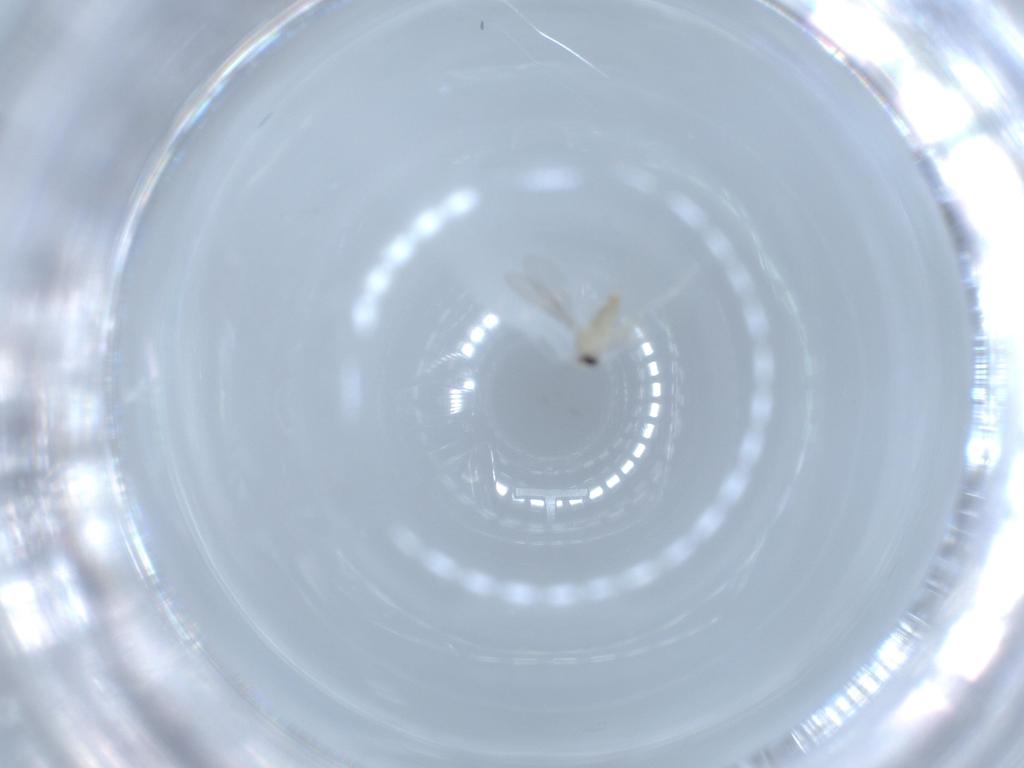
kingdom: Animalia
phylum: Arthropoda
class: Insecta
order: Diptera
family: Cecidomyiidae
